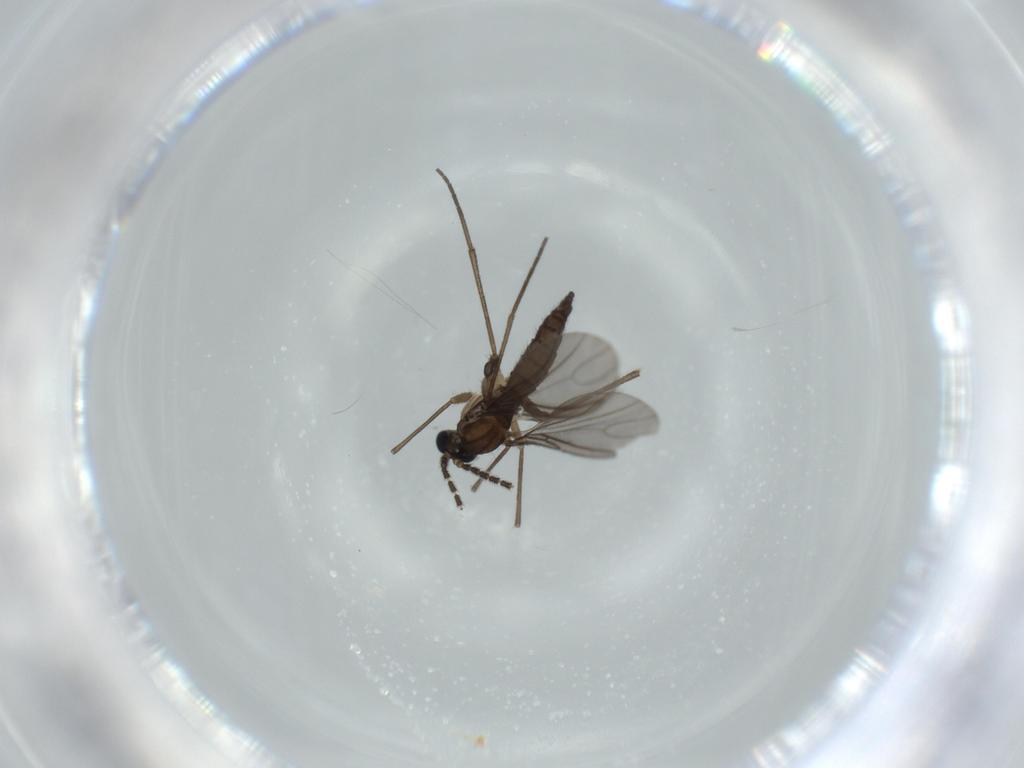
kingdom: Animalia
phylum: Arthropoda
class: Insecta
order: Diptera
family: Sciaridae
